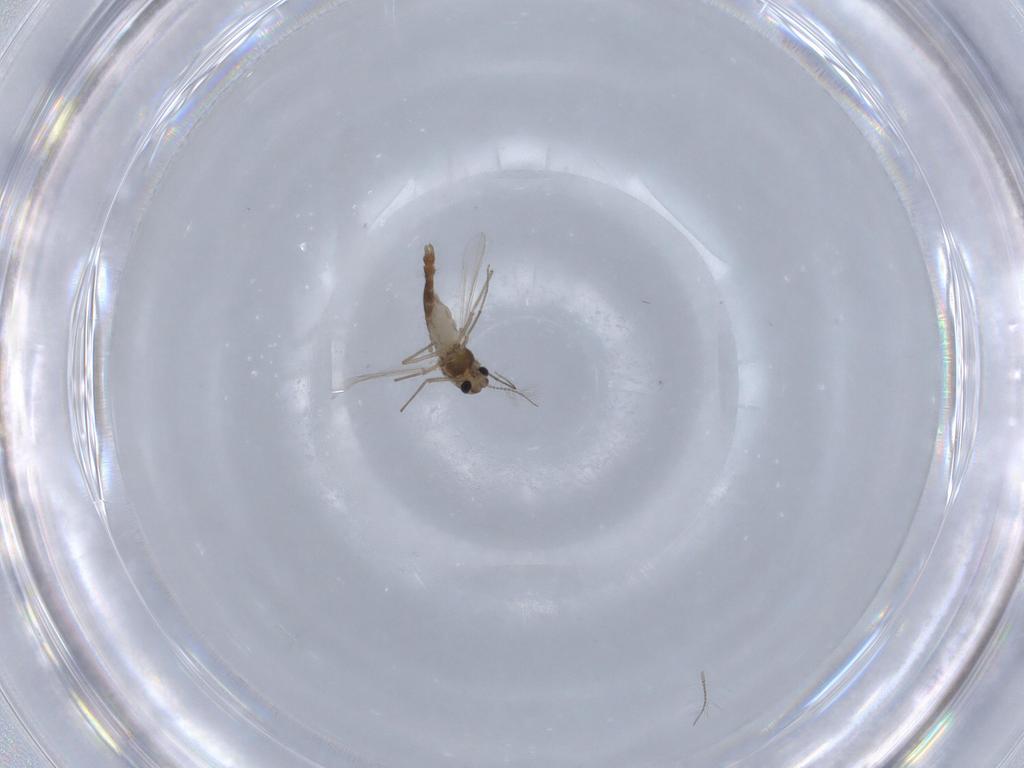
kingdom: Animalia
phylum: Arthropoda
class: Insecta
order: Diptera
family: Chironomidae
